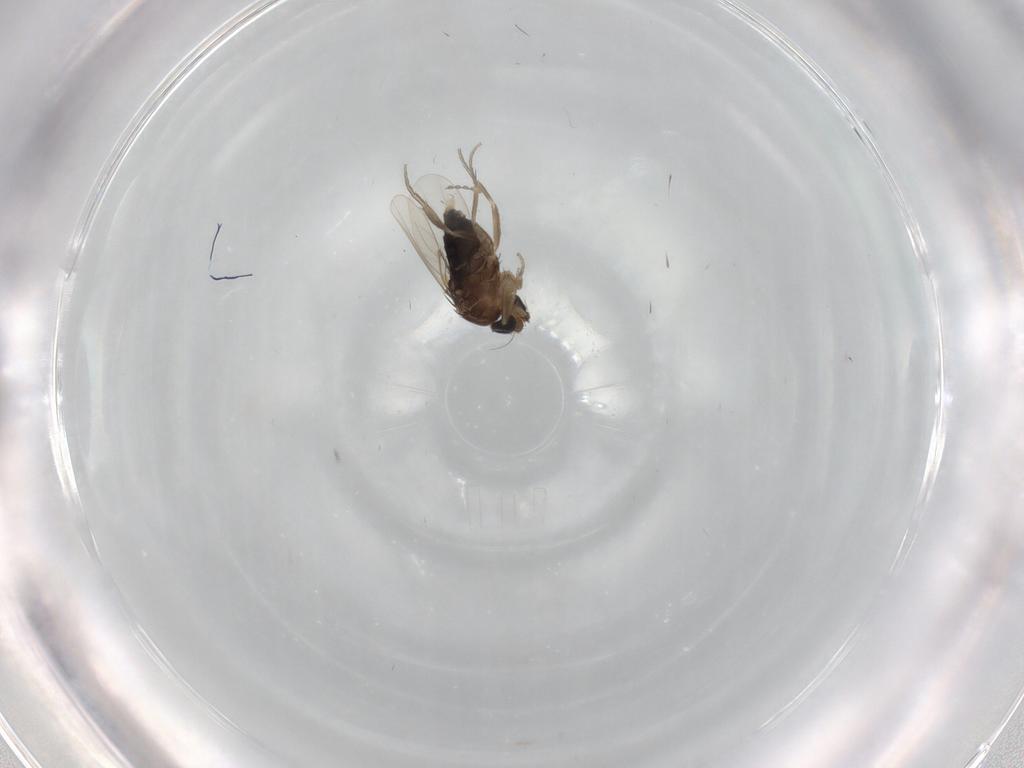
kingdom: Animalia
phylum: Arthropoda
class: Insecta
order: Diptera
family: Phoridae
